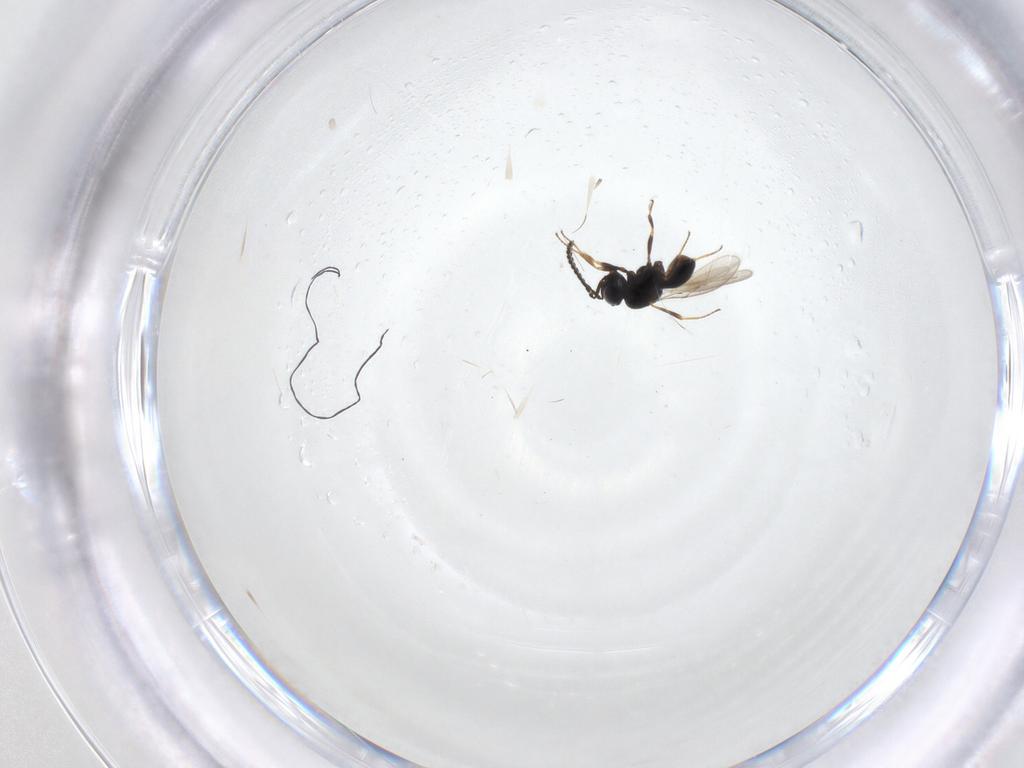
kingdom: Animalia
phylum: Arthropoda
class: Insecta
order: Hymenoptera
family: Scelionidae
